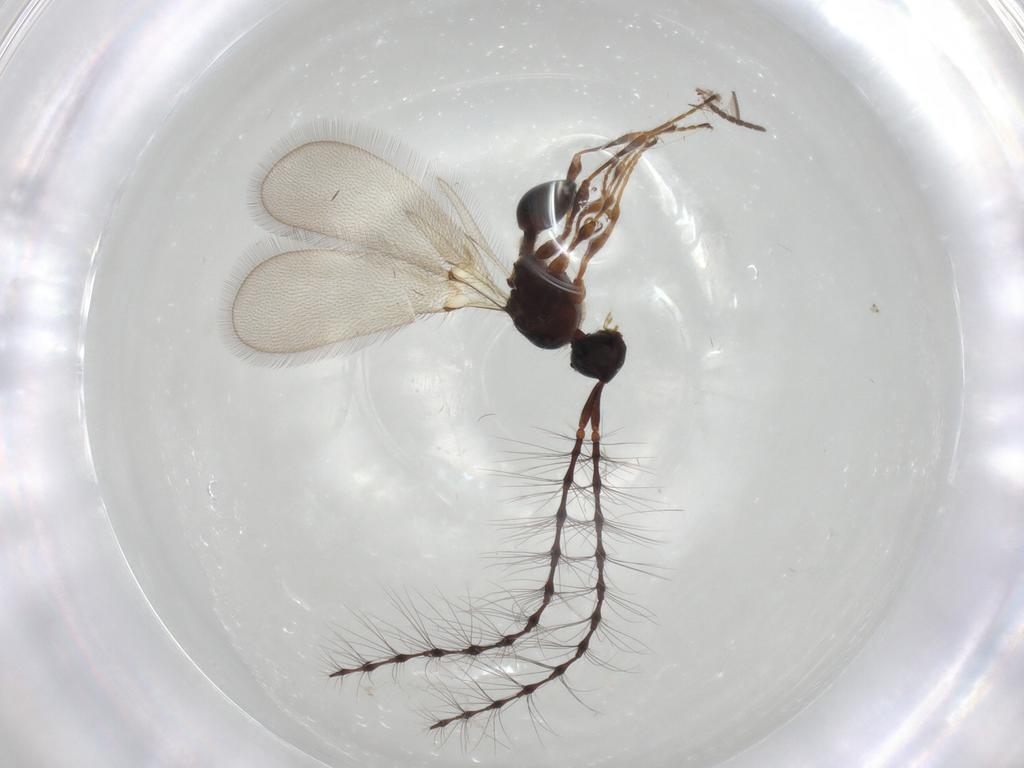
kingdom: Animalia
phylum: Arthropoda
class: Insecta
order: Hymenoptera
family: Diapriidae
